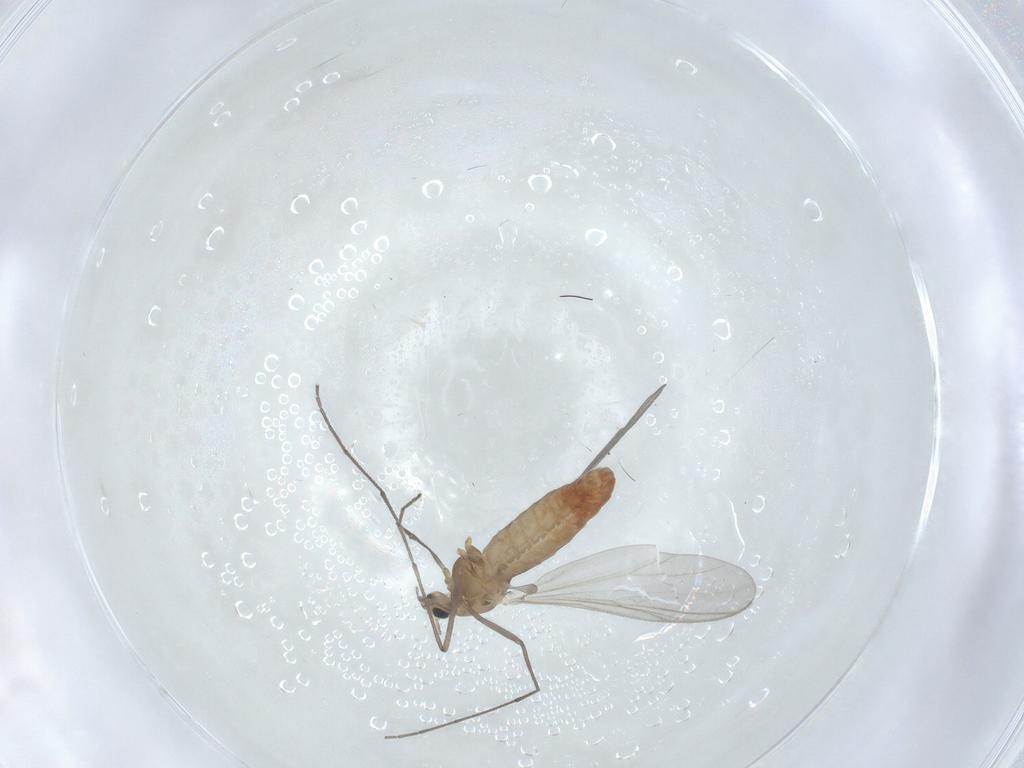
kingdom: Animalia
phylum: Arthropoda
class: Insecta
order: Diptera
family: Chironomidae
